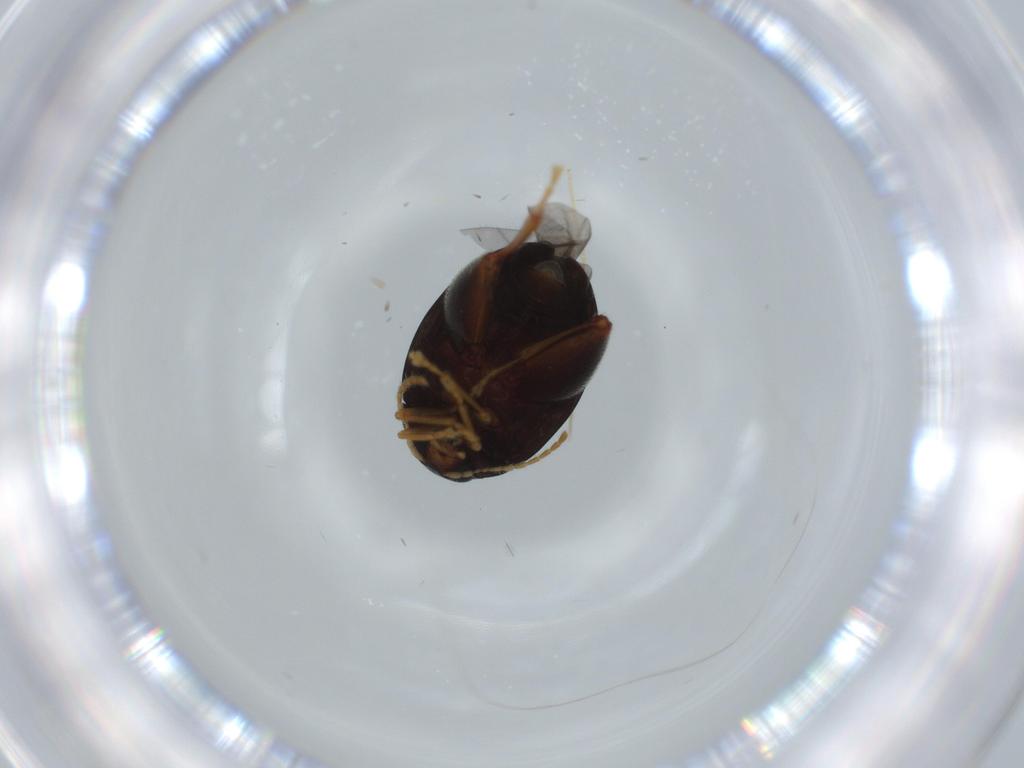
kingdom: Animalia
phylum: Arthropoda
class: Insecta
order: Coleoptera
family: Chrysomelidae
